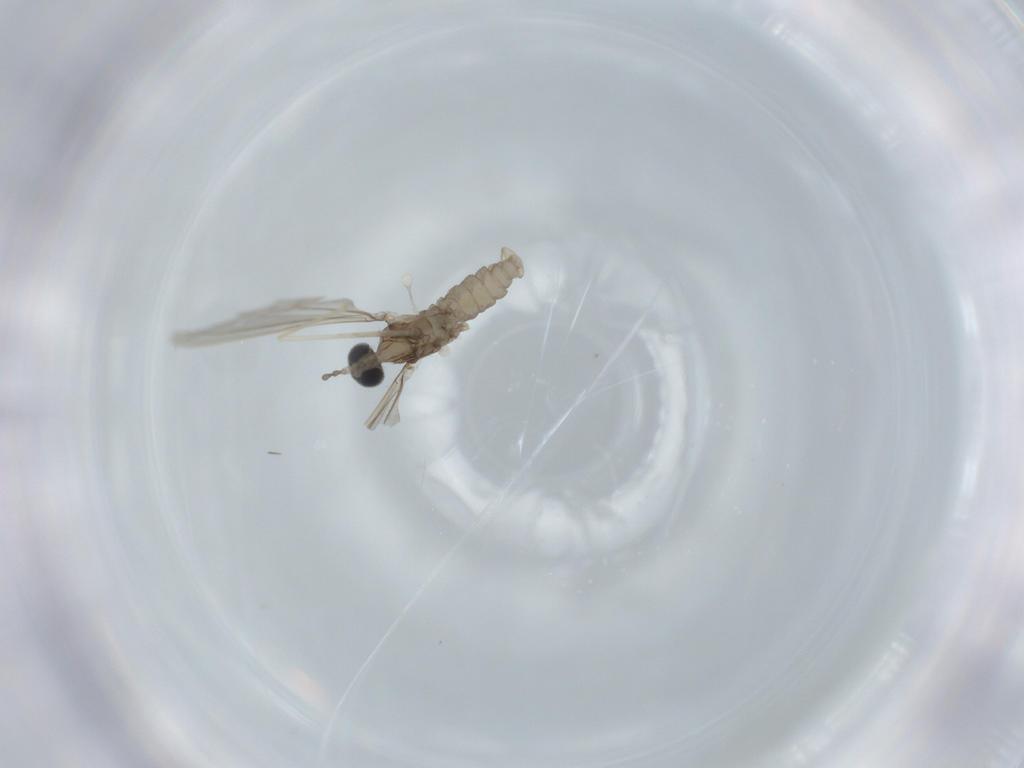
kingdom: Animalia
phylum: Arthropoda
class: Insecta
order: Diptera
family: Cecidomyiidae
